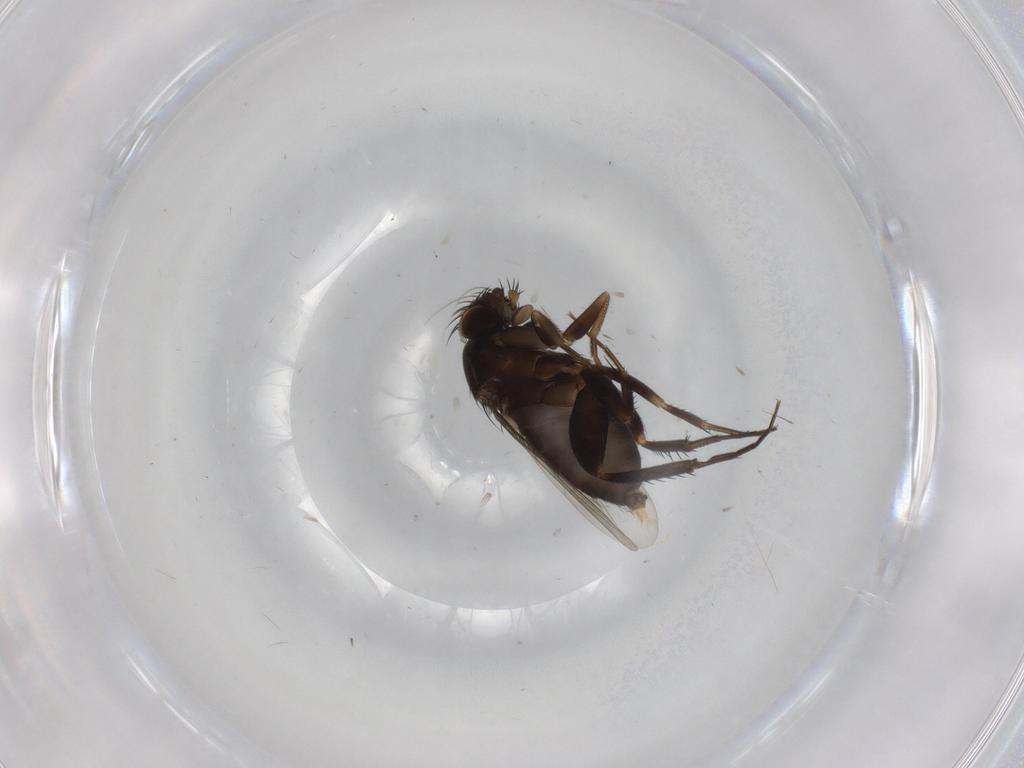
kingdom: Animalia
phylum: Arthropoda
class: Insecta
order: Diptera
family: Phoridae
